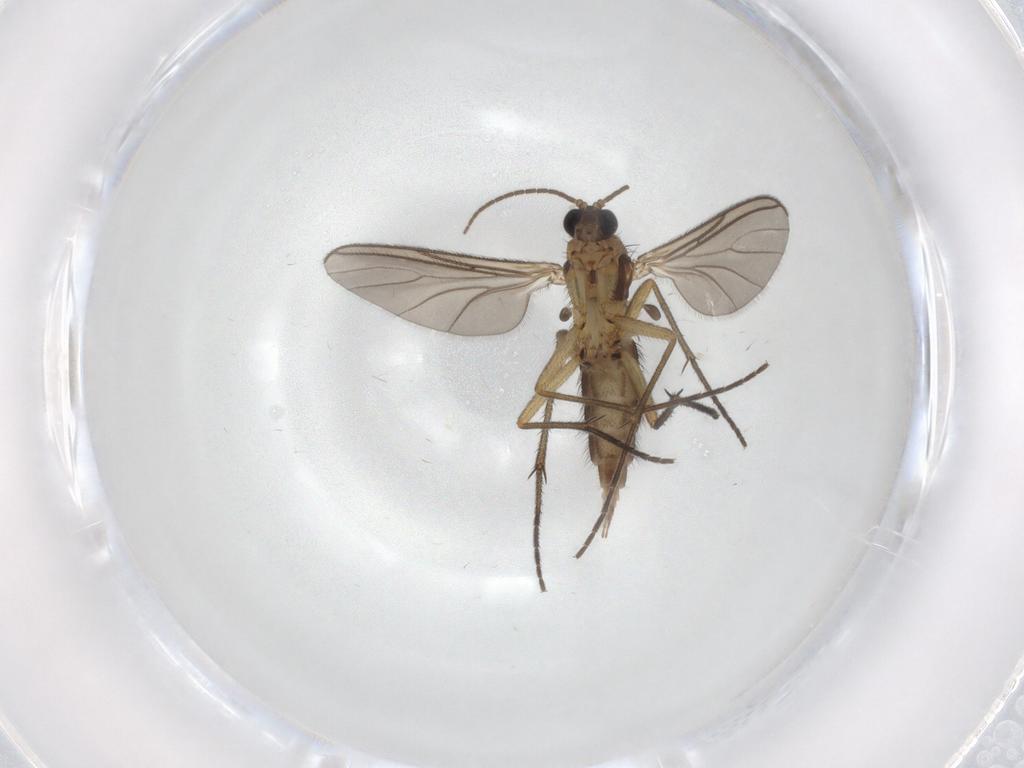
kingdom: Animalia
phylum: Arthropoda
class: Insecta
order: Diptera
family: Sciaridae
